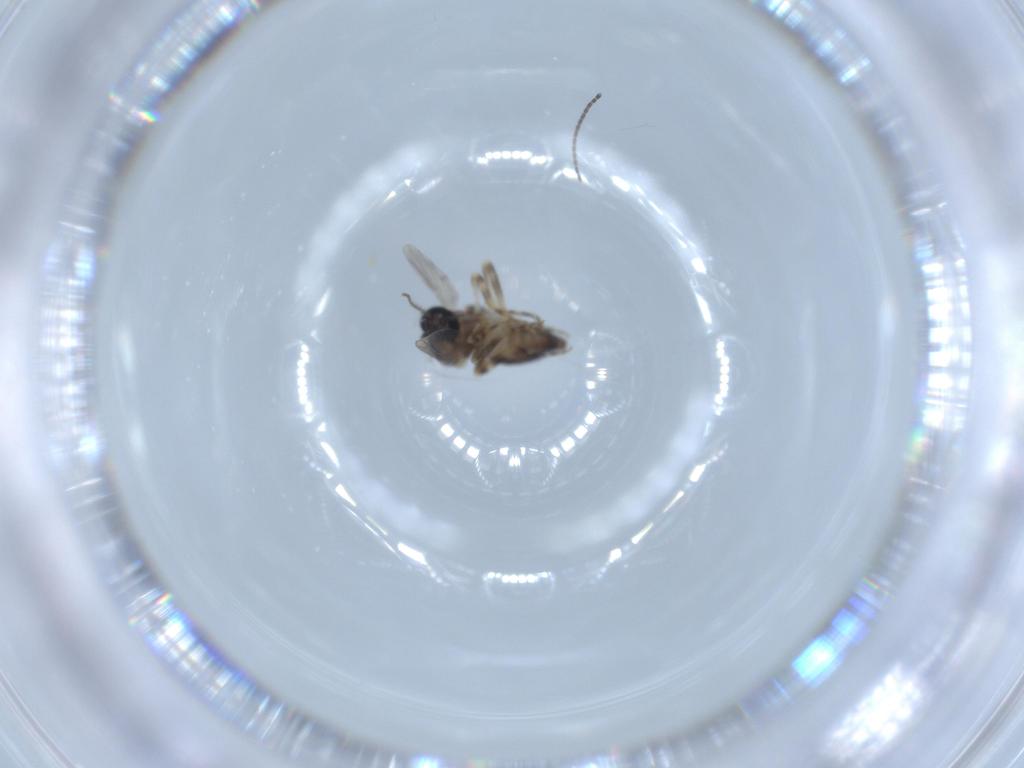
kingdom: Animalia
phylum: Arthropoda
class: Insecta
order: Diptera
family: Ceratopogonidae
